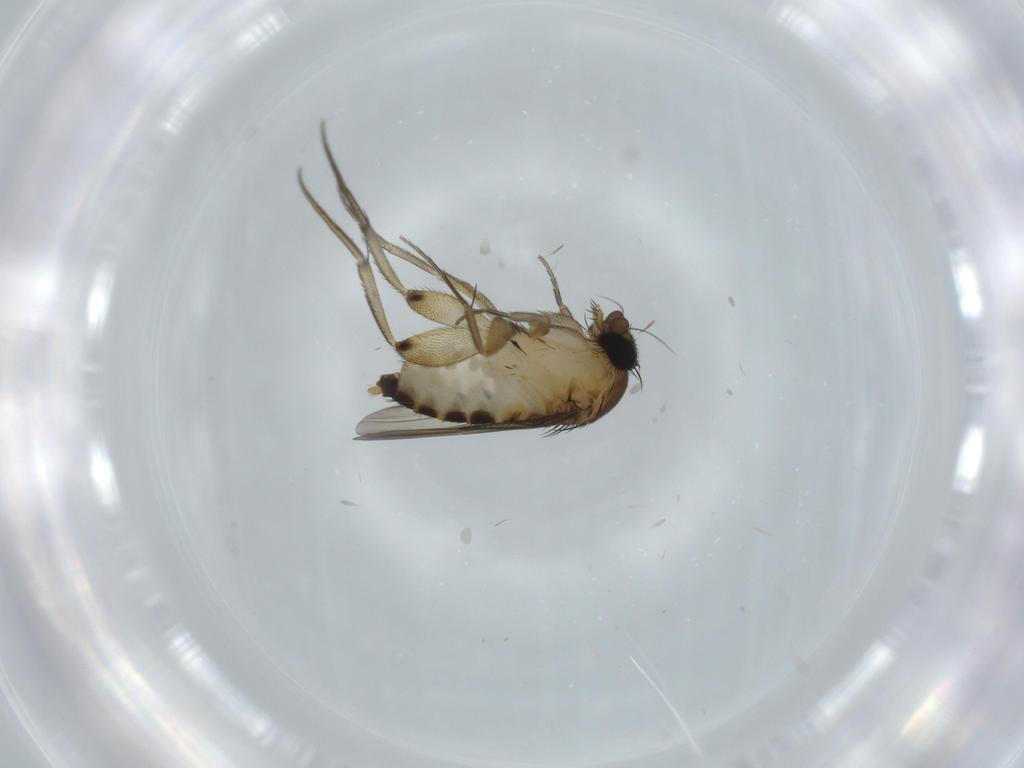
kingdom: Animalia
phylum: Arthropoda
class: Insecta
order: Diptera
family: Phoridae
